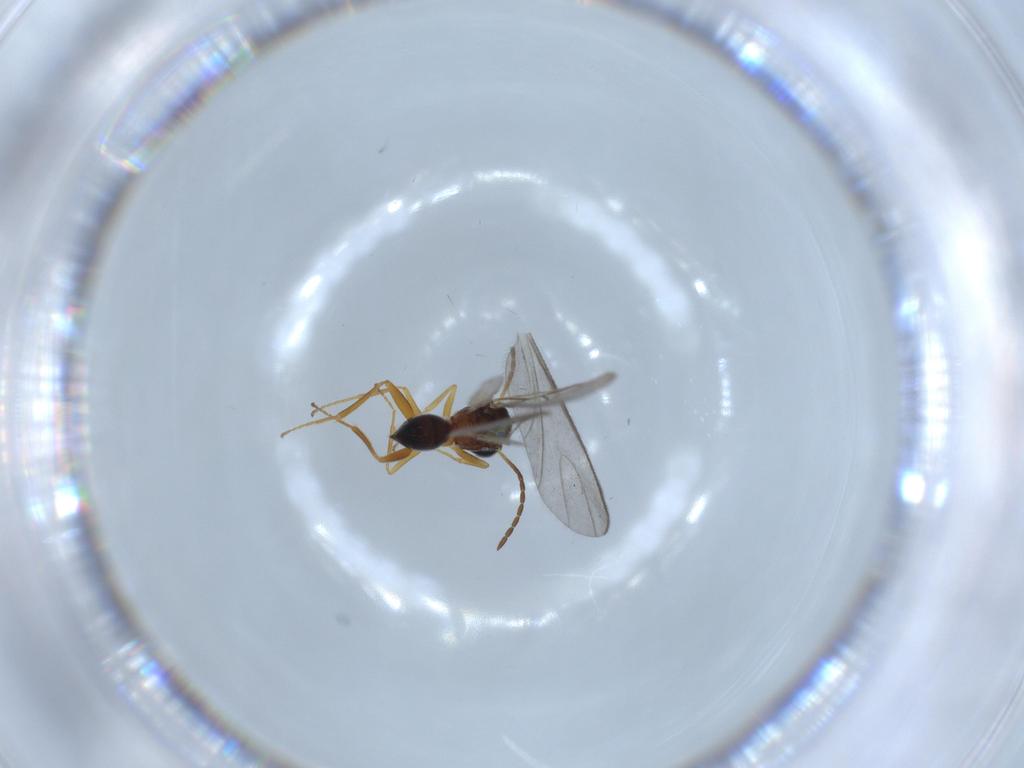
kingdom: Animalia
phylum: Arthropoda
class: Insecta
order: Hymenoptera
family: Figitidae
